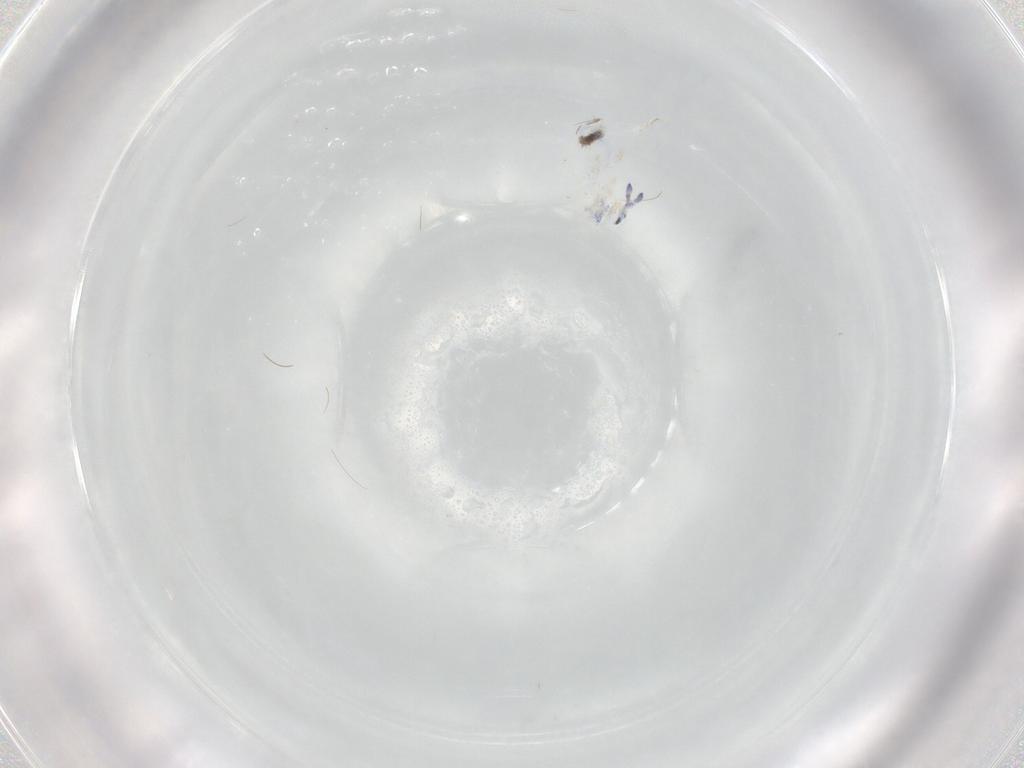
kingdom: Animalia
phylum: Arthropoda
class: Collembola
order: Entomobryomorpha
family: Entomobryidae
